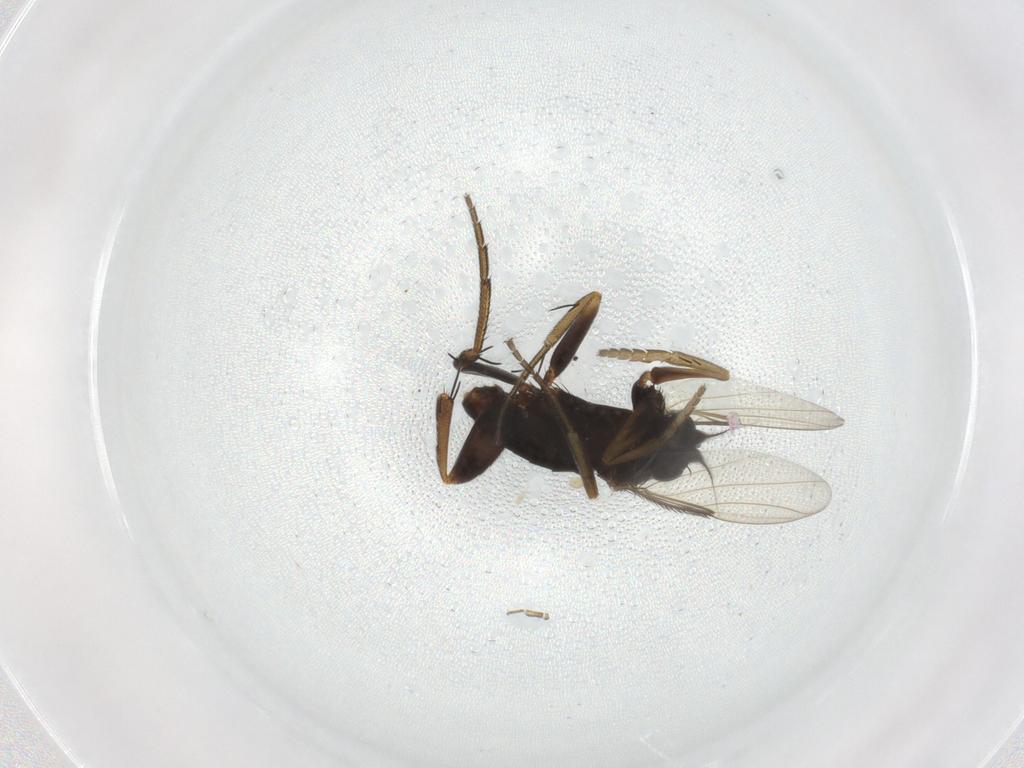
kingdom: Animalia
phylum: Arthropoda
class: Insecta
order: Diptera
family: Phoridae
